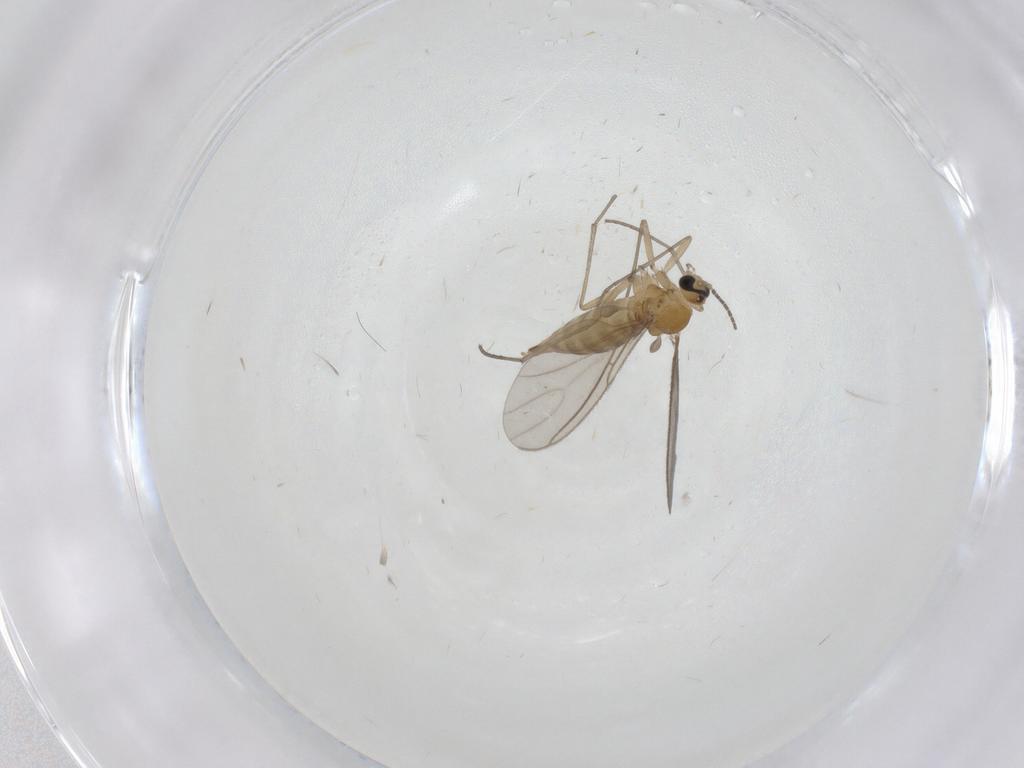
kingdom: Animalia
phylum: Arthropoda
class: Insecta
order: Diptera
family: Sciaridae
